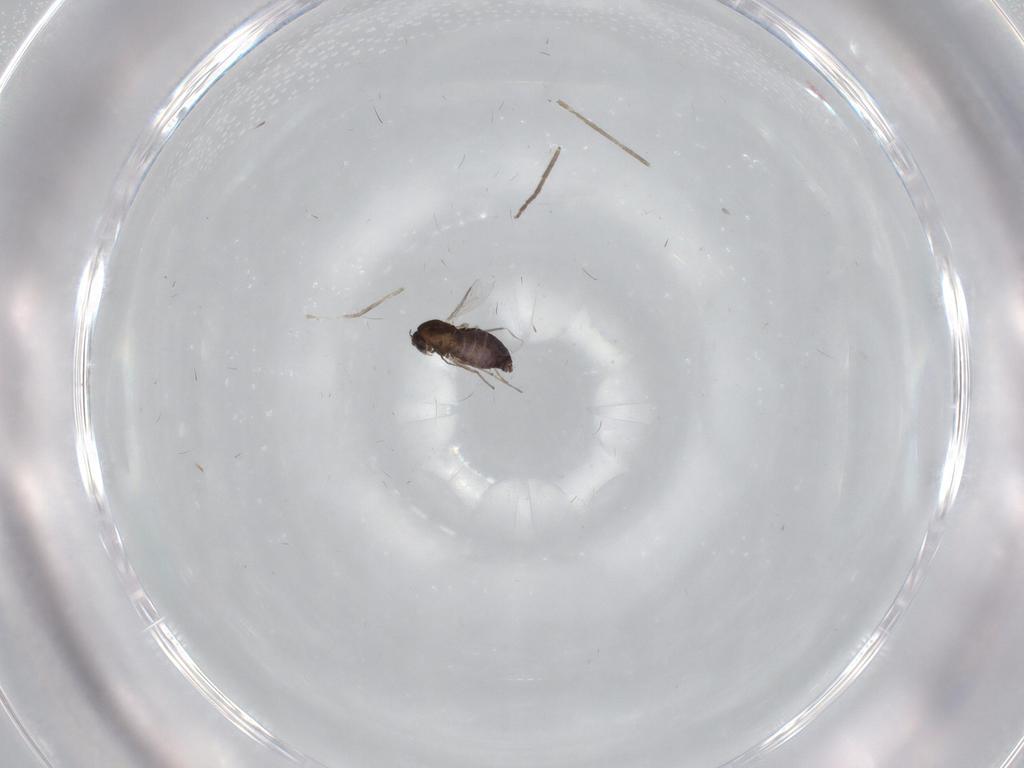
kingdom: Animalia
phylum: Arthropoda
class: Insecta
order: Diptera
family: Chironomidae
